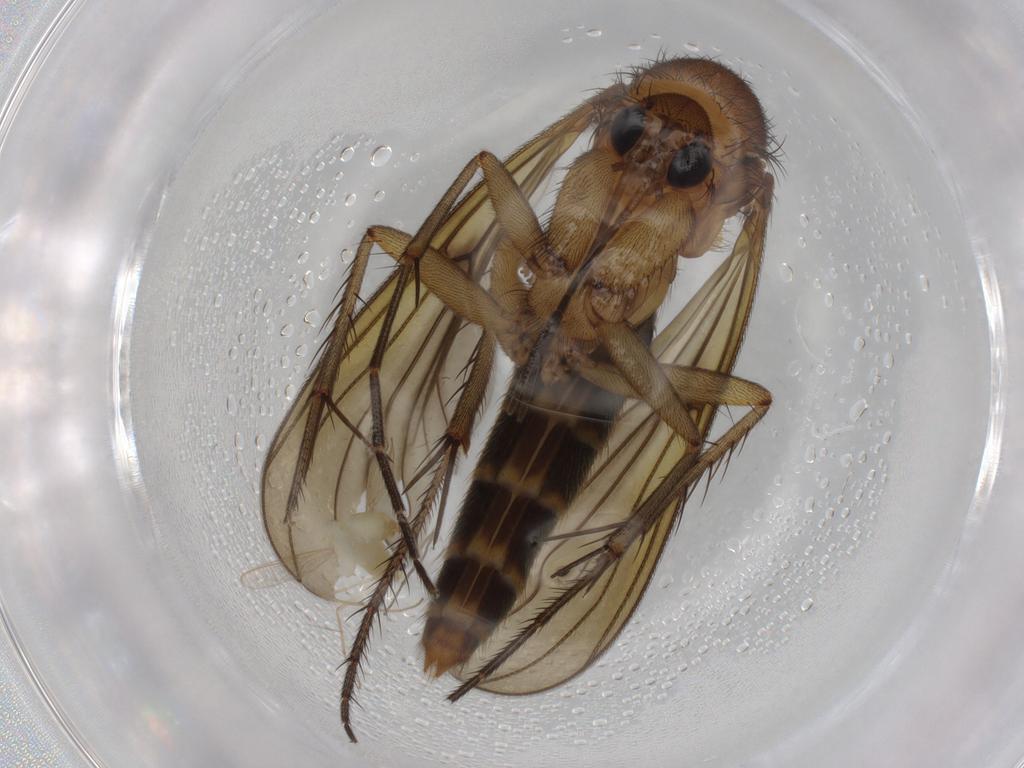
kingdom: Animalia
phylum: Arthropoda
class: Insecta
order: Diptera
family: Mycetophilidae
